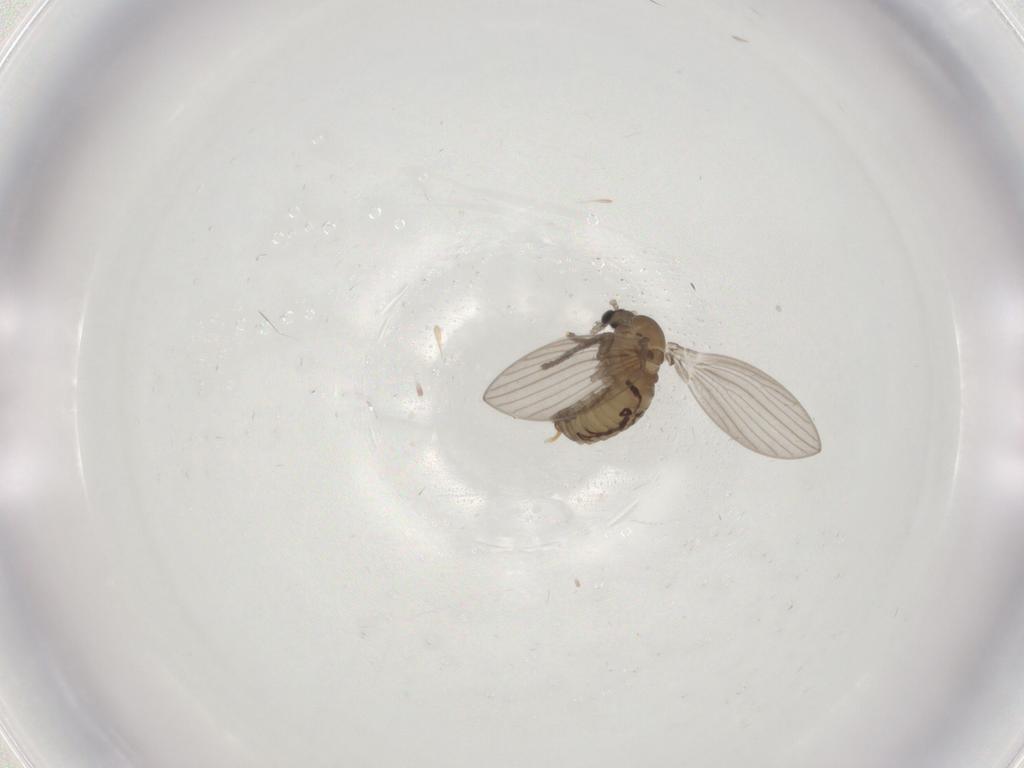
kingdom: Animalia
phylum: Arthropoda
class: Insecta
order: Diptera
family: Psychodidae
